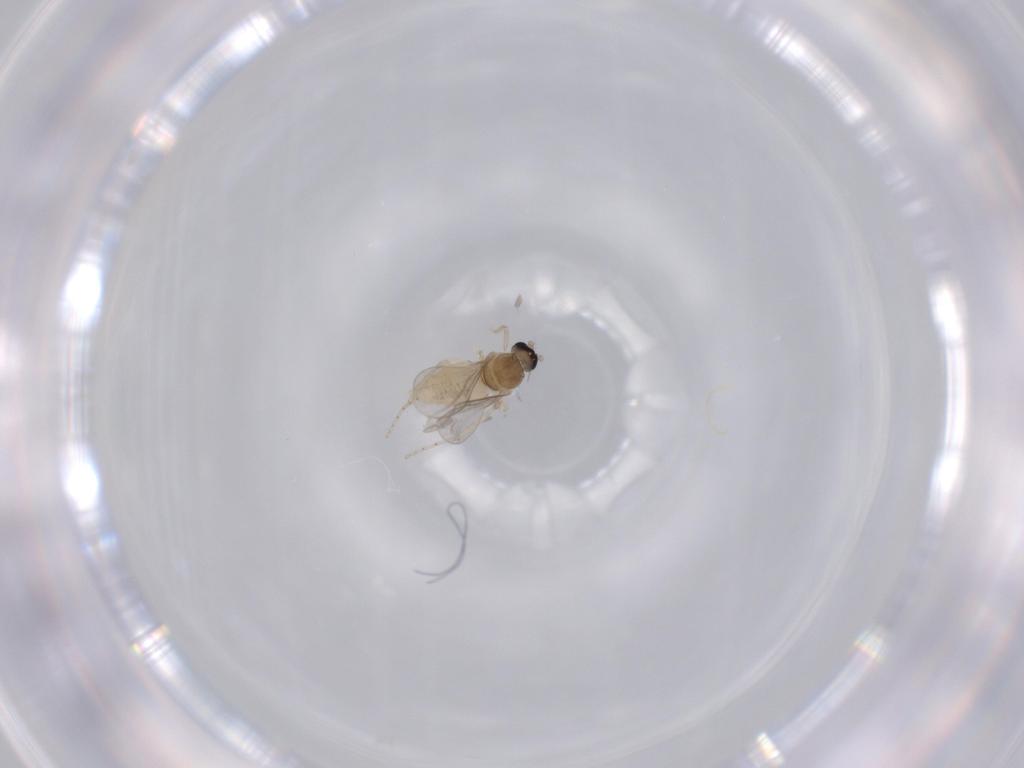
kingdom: Animalia
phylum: Arthropoda
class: Insecta
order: Diptera
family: Cecidomyiidae
